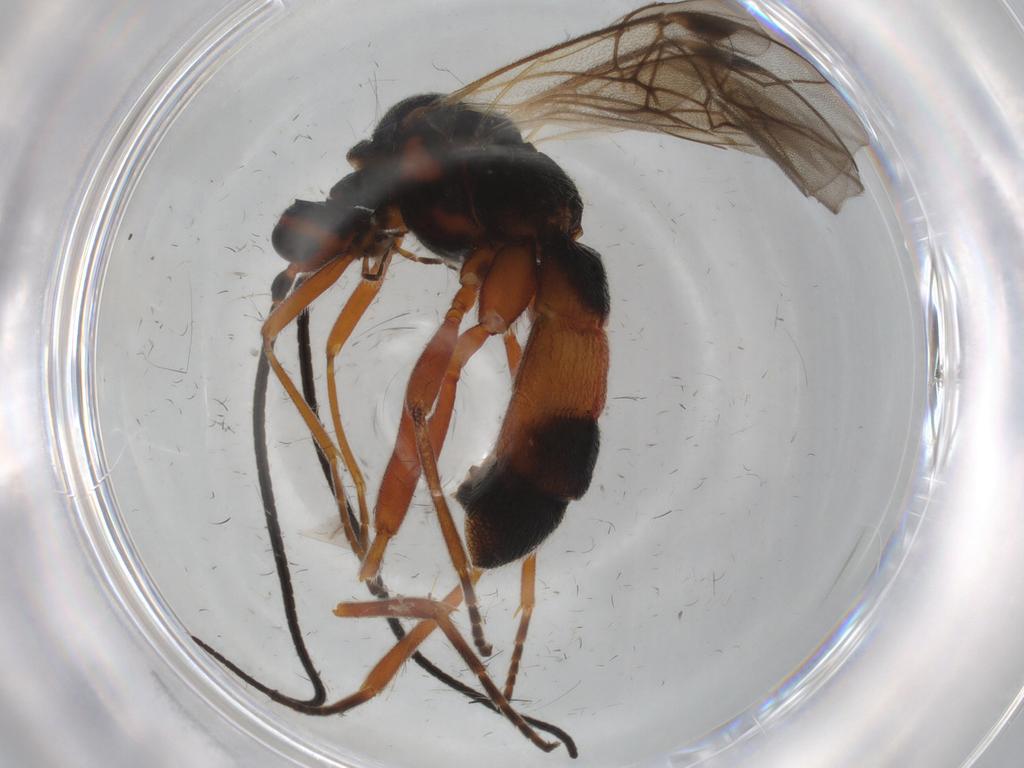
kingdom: Animalia
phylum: Arthropoda
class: Insecta
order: Hymenoptera
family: Braconidae
